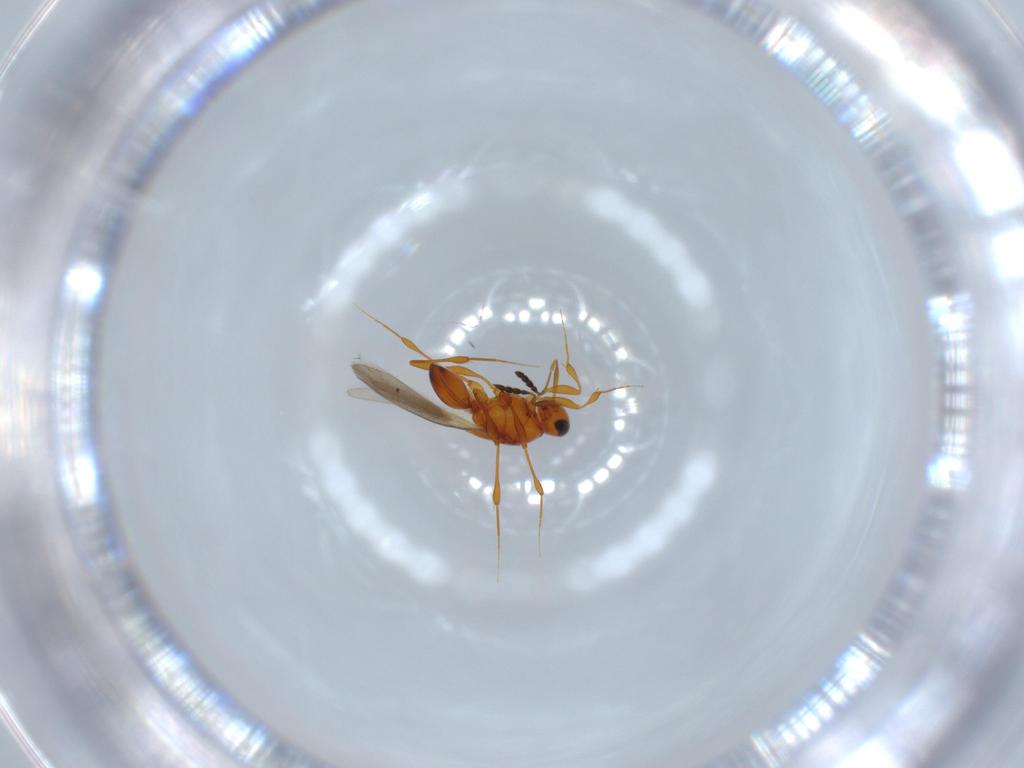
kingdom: Animalia
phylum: Arthropoda
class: Insecta
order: Hymenoptera
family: Platygastridae
